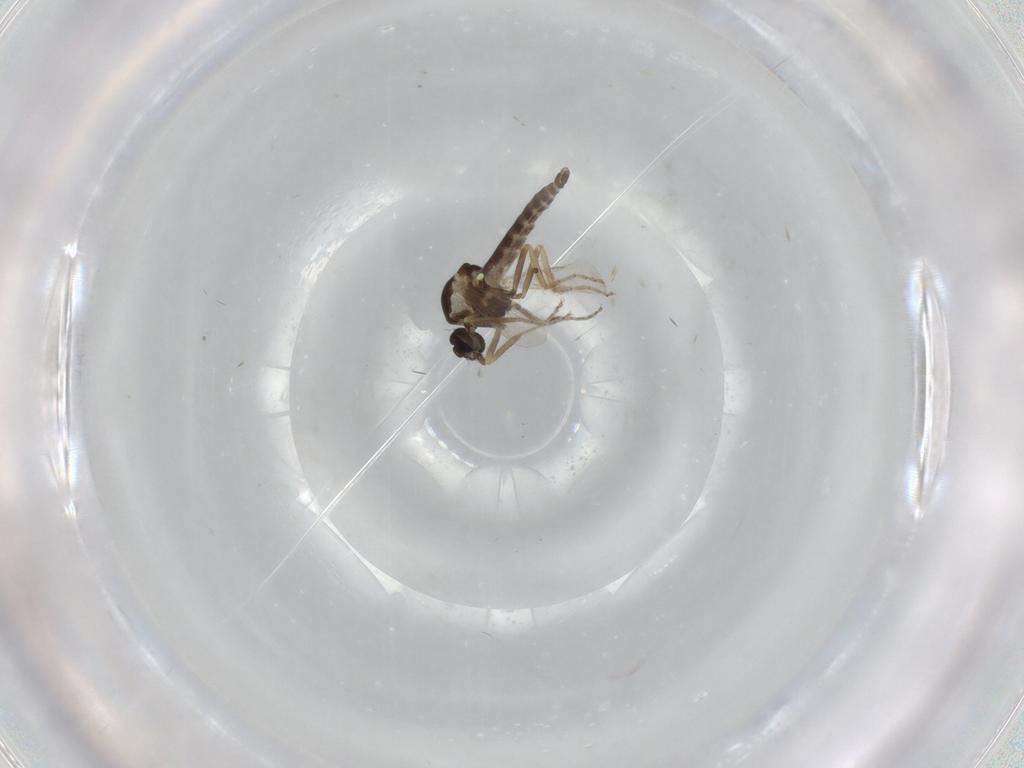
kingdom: Animalia
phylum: Arthropoda
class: Insecta
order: Diptera
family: Ceratopogonidae
